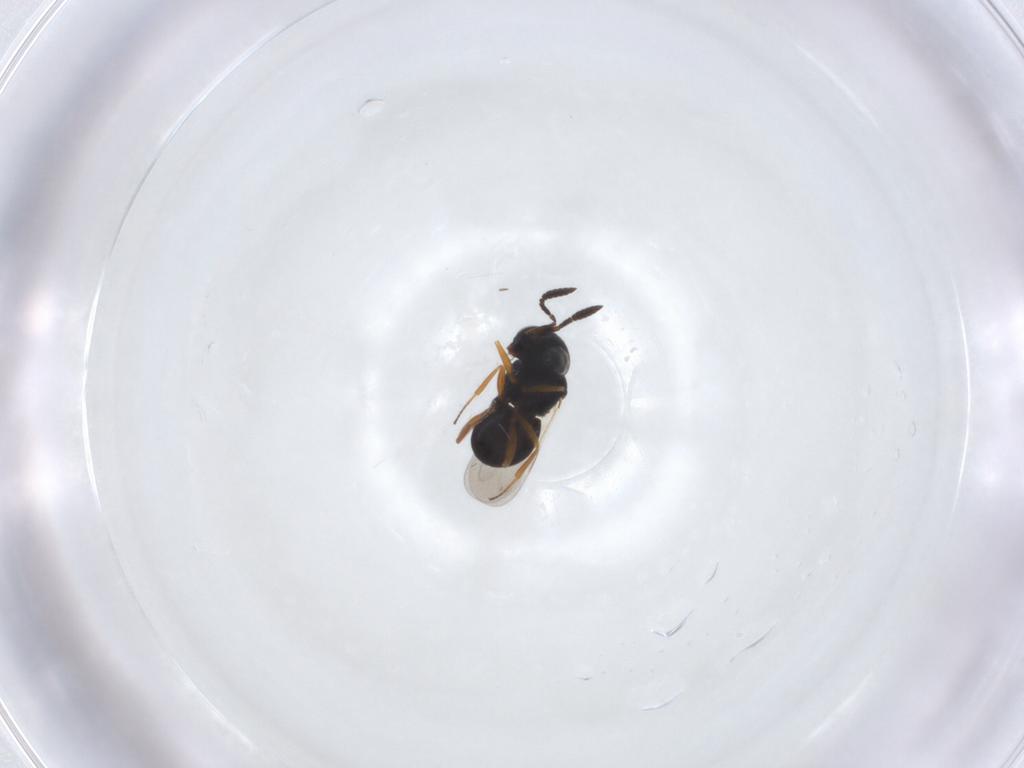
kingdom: Animalia
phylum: Arthropoda
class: Insecta
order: Hymenoptera
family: Scelionidae
